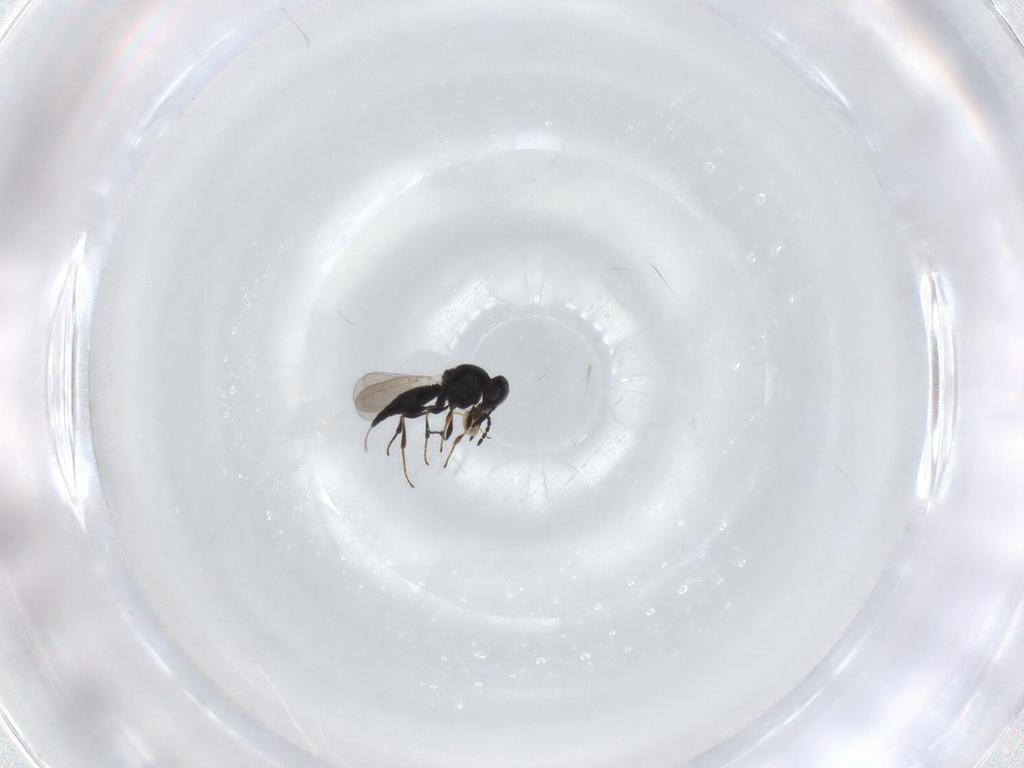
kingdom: Animalia
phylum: Arthropoda
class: Insecta
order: Hymenoptera
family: Platygastridae
